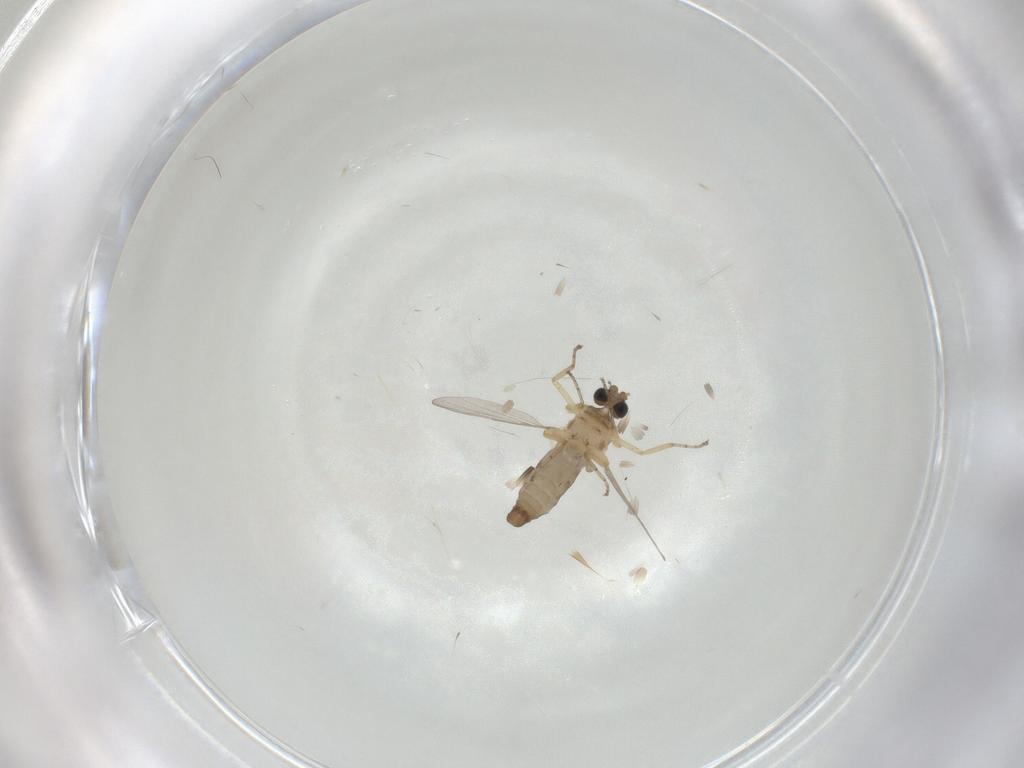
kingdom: Animalia
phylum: Arthropoda
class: Insecta
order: Diptera
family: Ceratopogonidae
